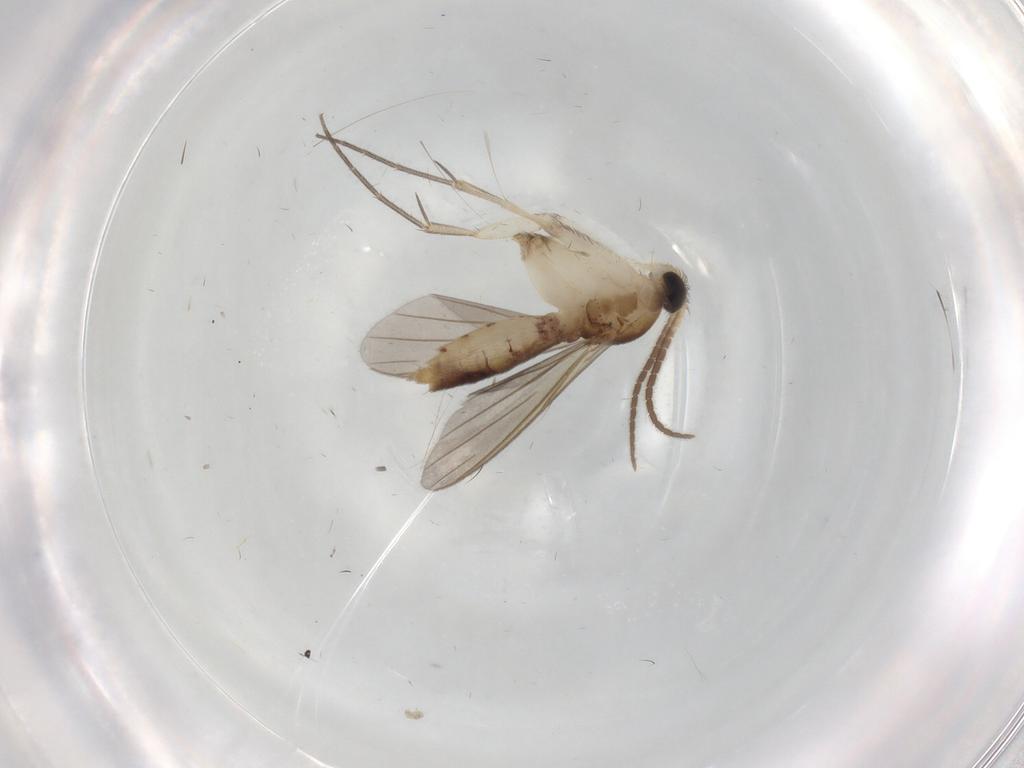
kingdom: Animalia
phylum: Arthropoda
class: Insecta
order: Diptera
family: Mycetophilidae
